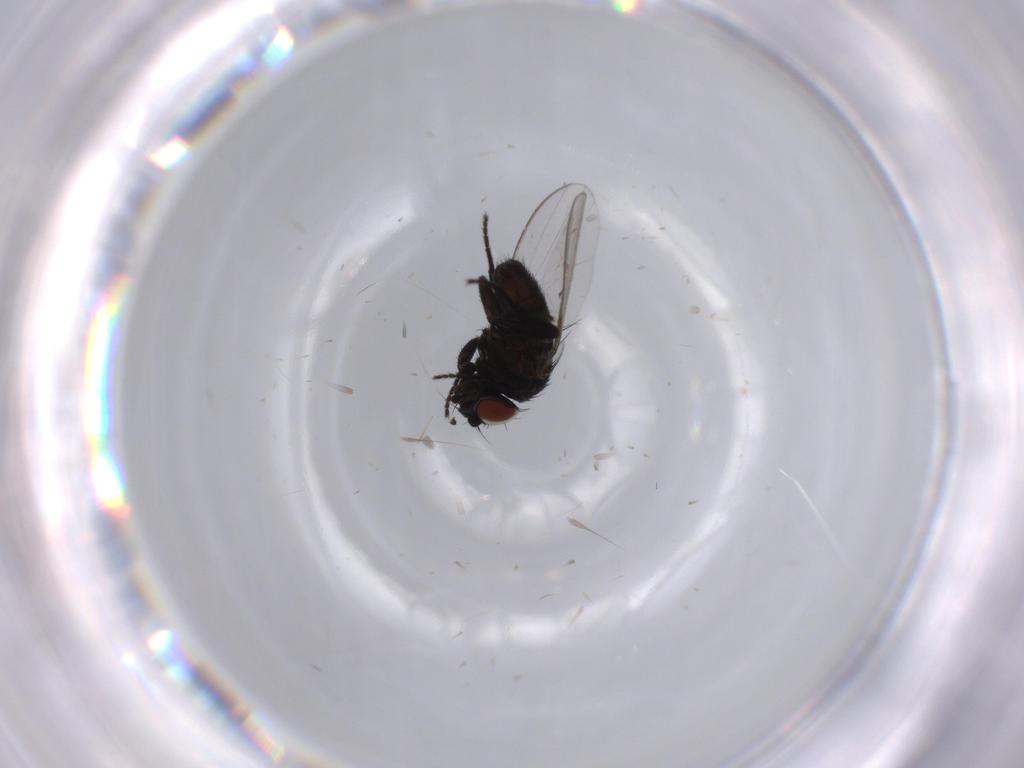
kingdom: Animalia
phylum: Arthropoda
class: Insecta
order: Diptera
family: Milichiidae
